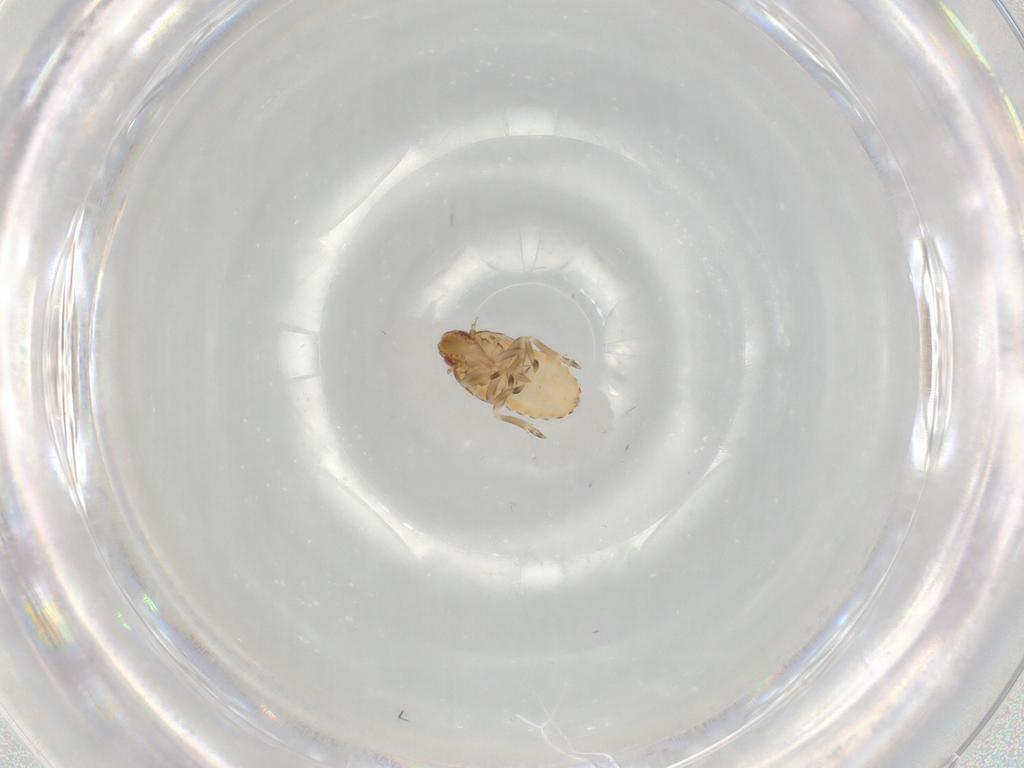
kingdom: Animalia
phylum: Arthropoda
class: Insecta
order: Hemiptera
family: Flatidae
